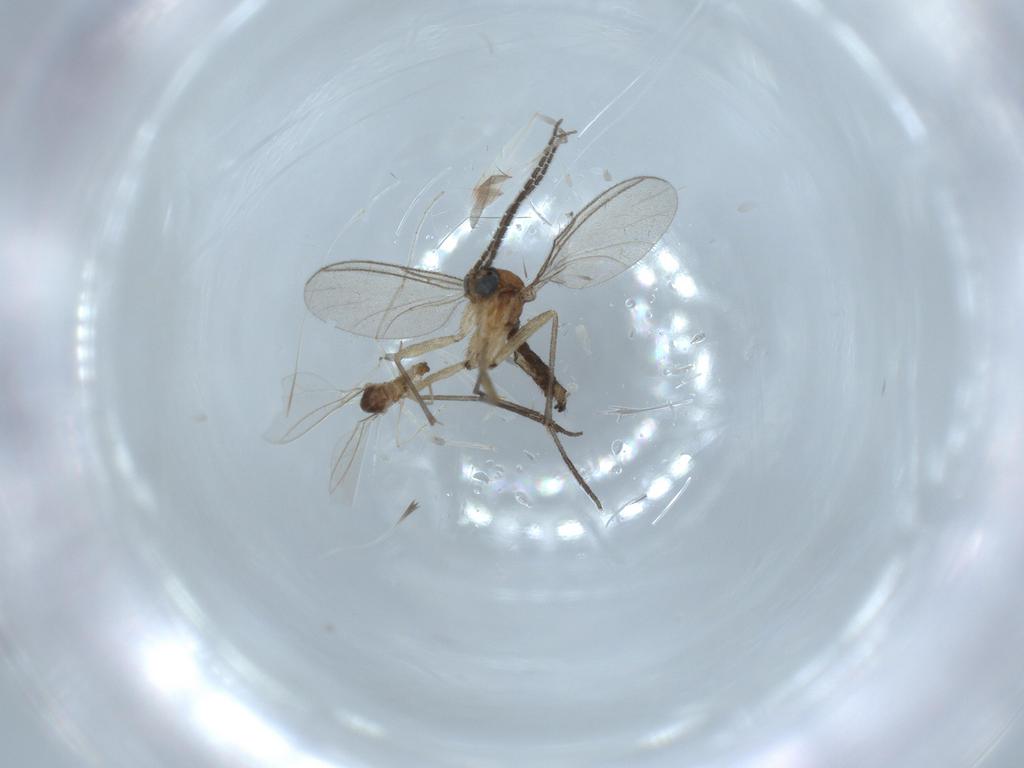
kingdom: Animalia
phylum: Arthropoda
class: Insecta
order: Diptera
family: Sciaridae
